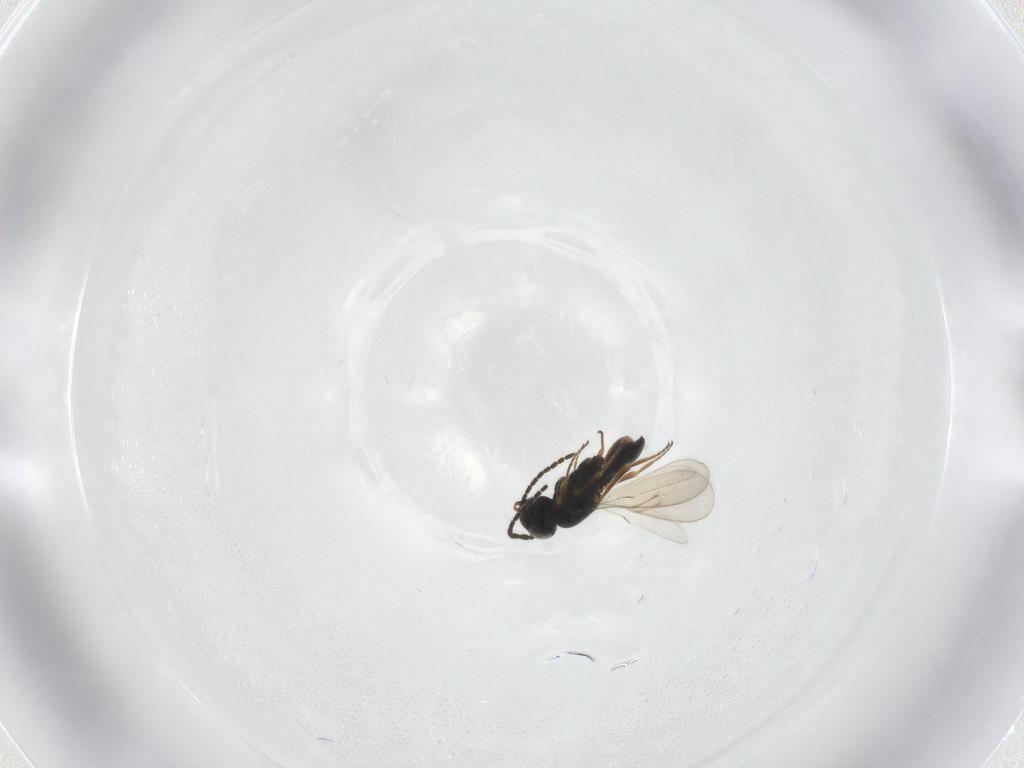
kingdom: Animalia
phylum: Arthropoda
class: Insecta
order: Hymenoptera
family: Scelionidae
